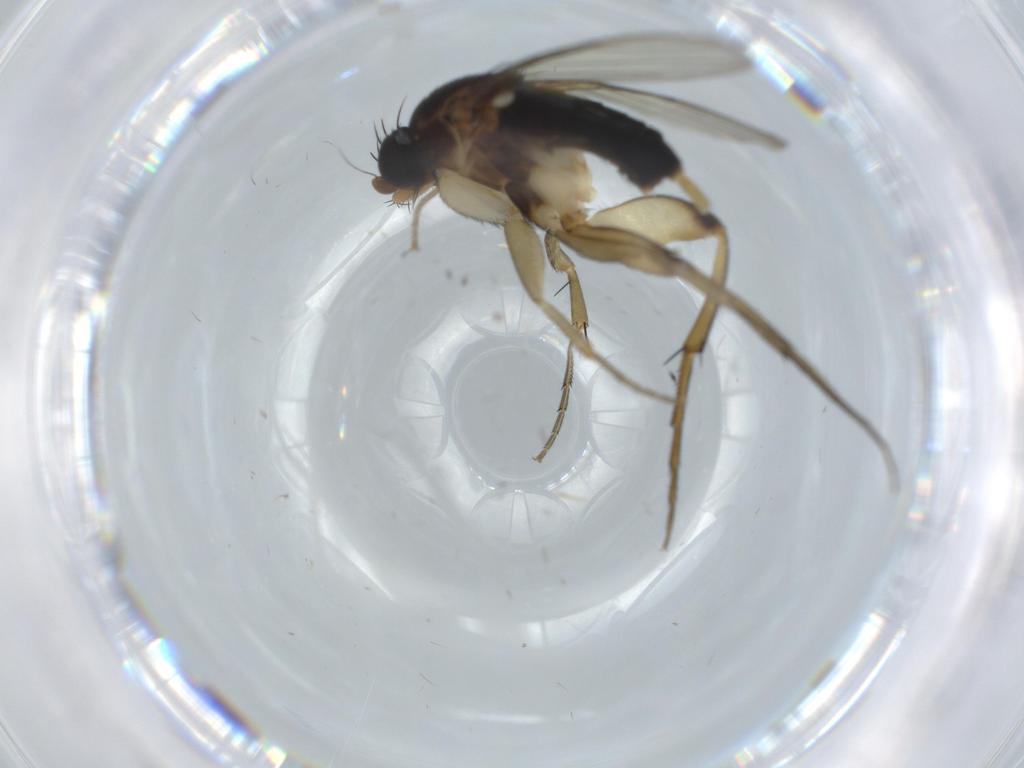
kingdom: Animalia
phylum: Arthropoda
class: Insecta
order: Diptera
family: Phoridae
